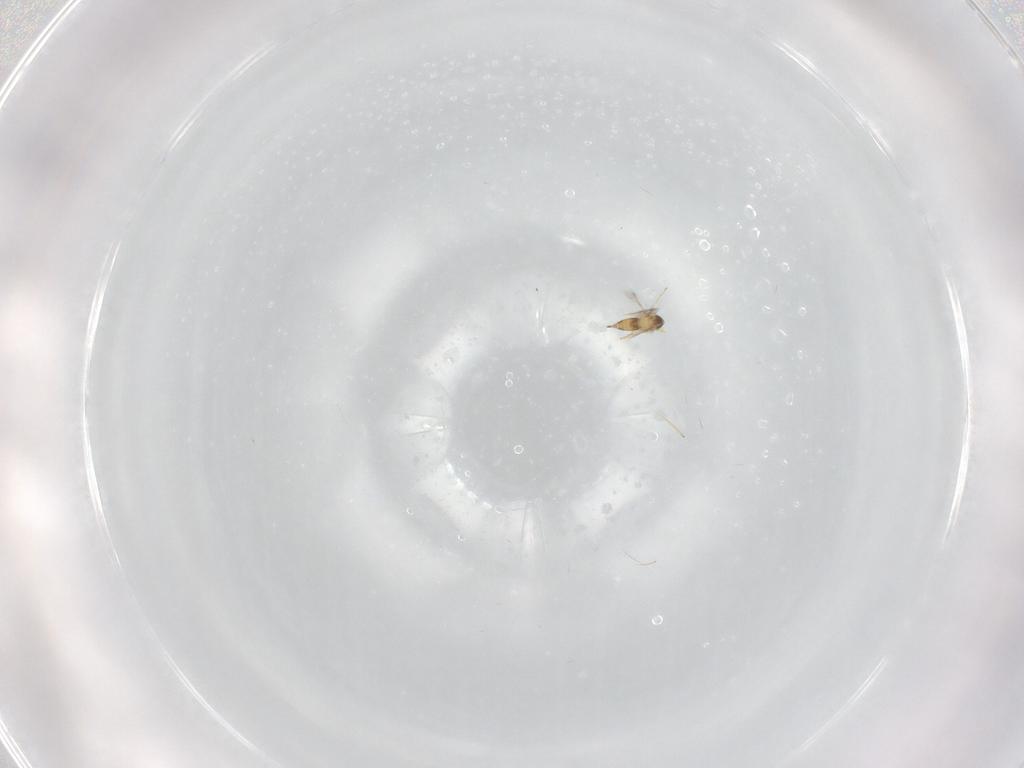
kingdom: Animalia
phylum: Arthropoda
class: Insecta
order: Hymenoptera
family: Mymaridae
